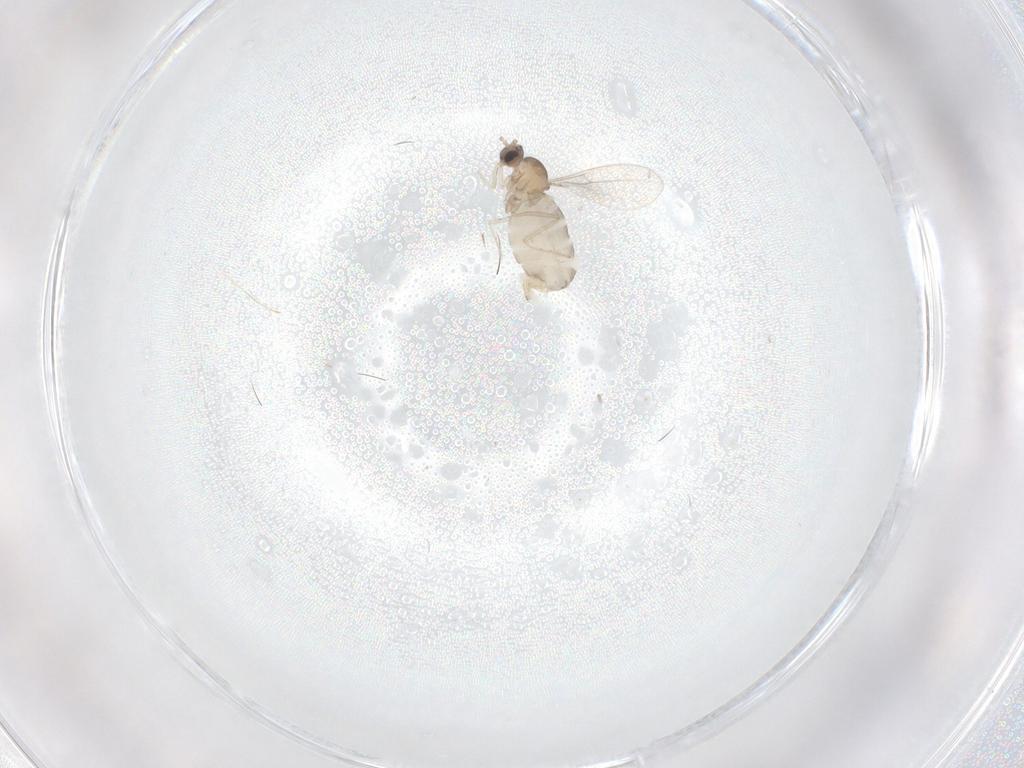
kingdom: Animalia
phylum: Arthropoda
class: Insecta
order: Diptera
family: Cecidomyiidae
